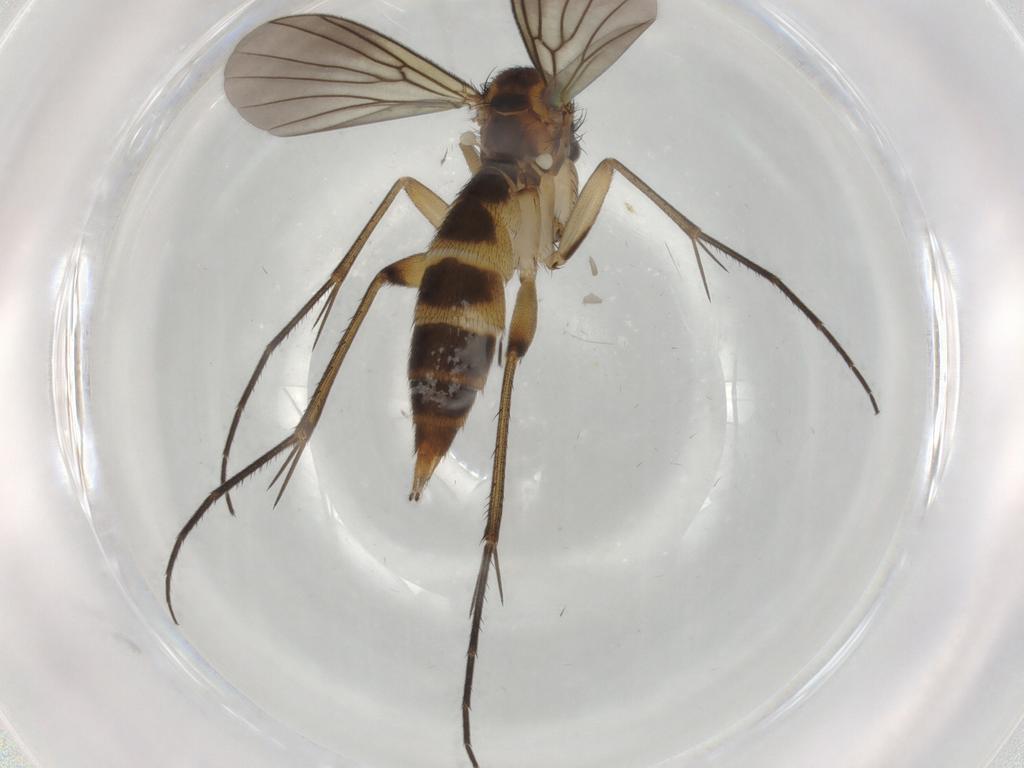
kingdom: Animalia
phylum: Arthropoda
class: Insecta
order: Diptera
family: Mycetophilidae
